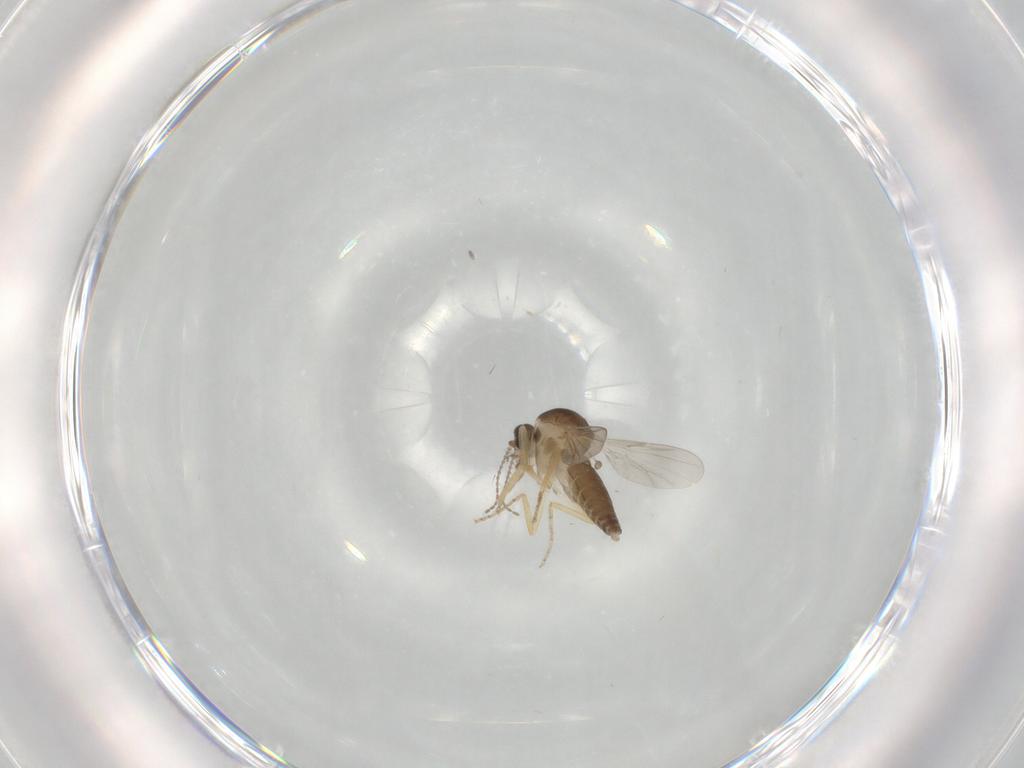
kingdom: Animalia
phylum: Arthropoda
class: Insecta
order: Diptera
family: Ceratopogonidae
